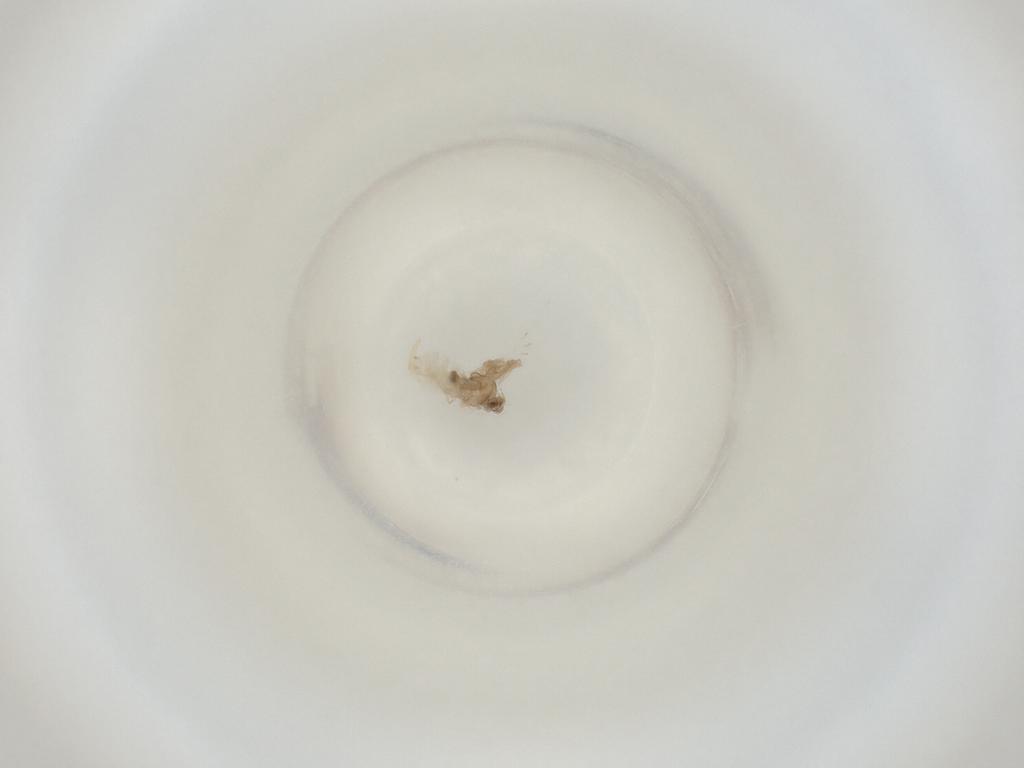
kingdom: Animalia
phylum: Arthropoda
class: Insecta
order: Diptera
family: Cecidomyiidae
